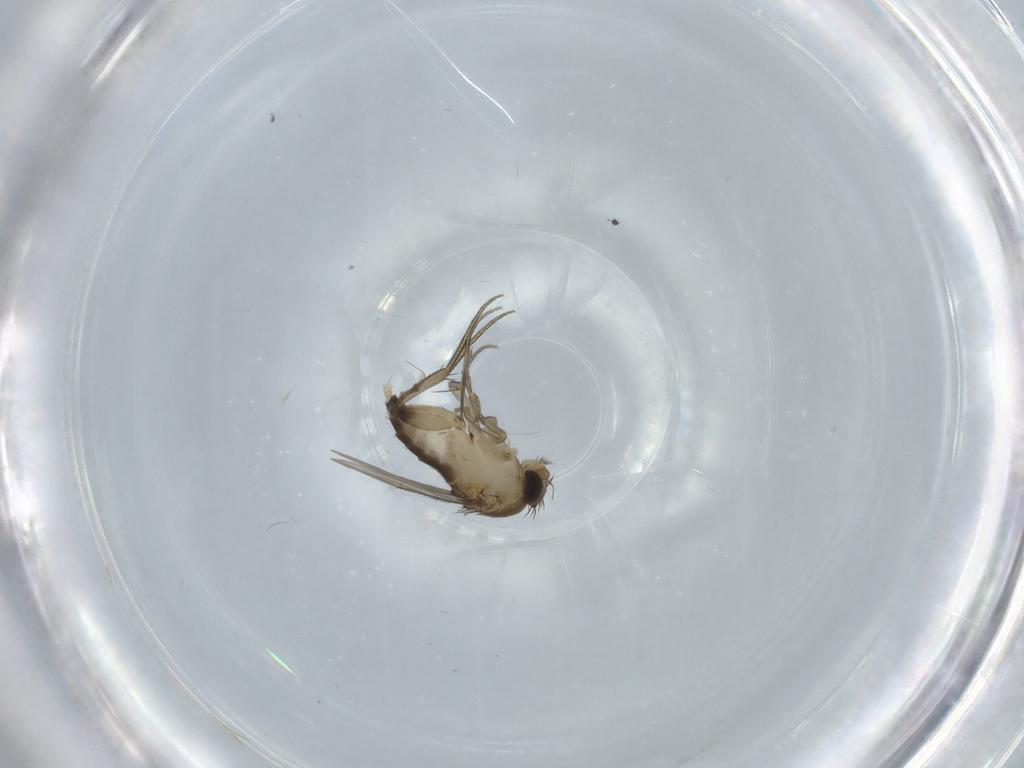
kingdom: Animalia
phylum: Arthropoda
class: Insecta
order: Diptera
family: Phoridae
